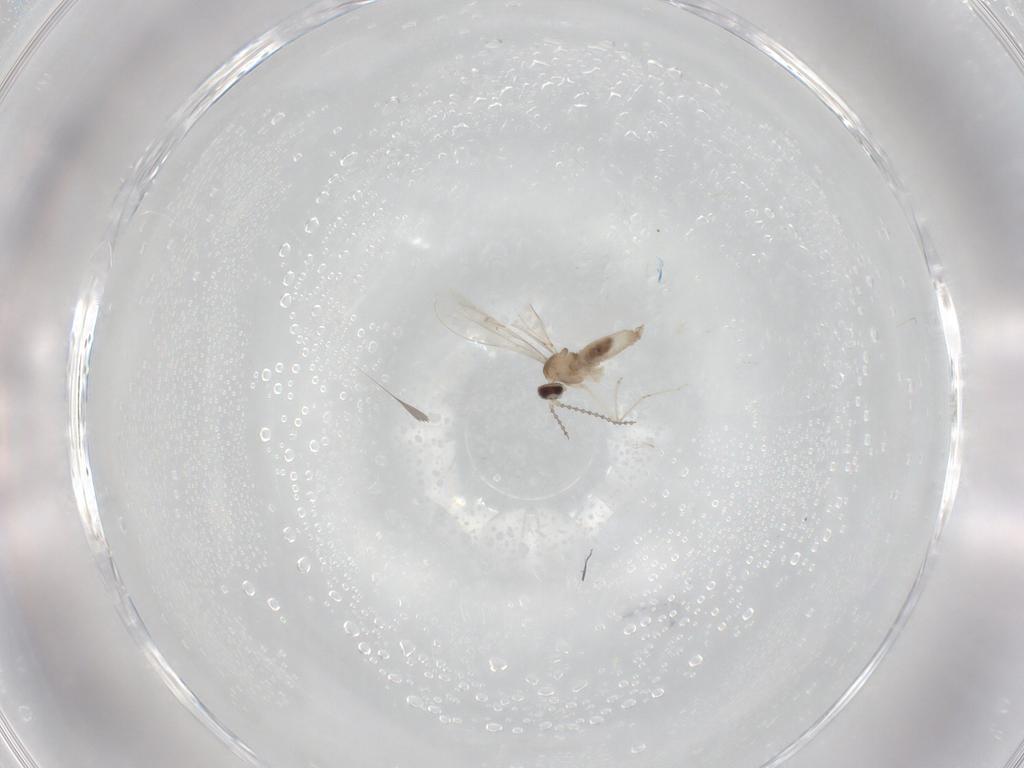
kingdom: Animalia
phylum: Arthropoda
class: Insecta
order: Diptera
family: Cecidomyiidae
